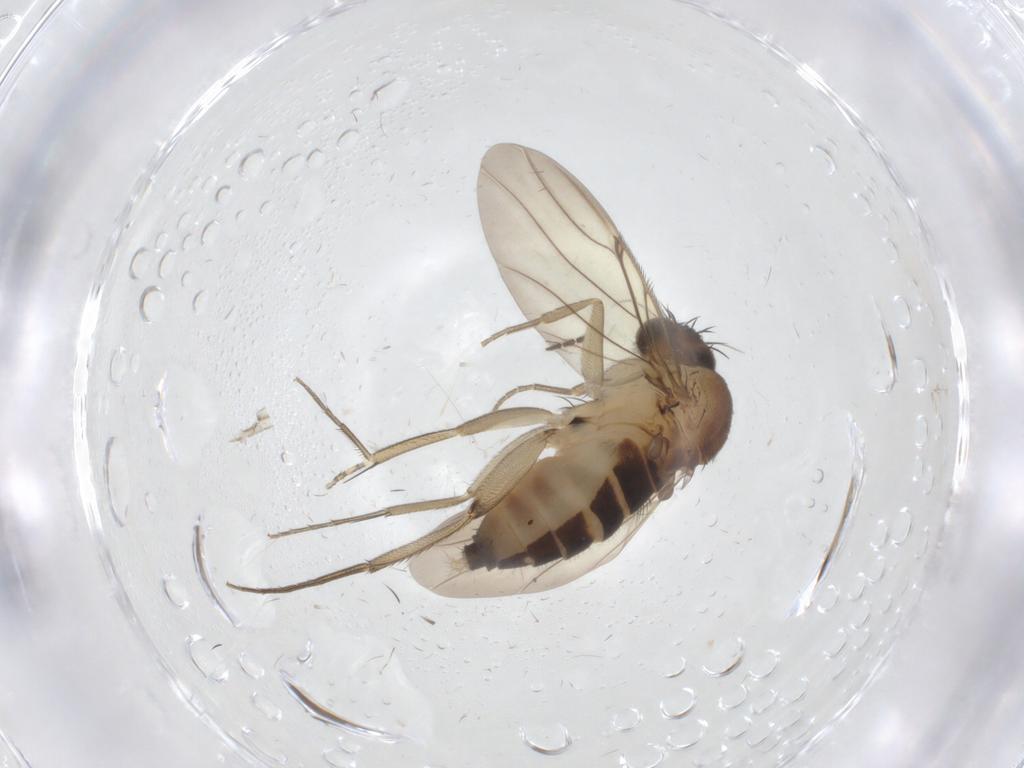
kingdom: Animalia
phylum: Arthropoda
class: Insecta
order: Diptera
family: Phoridae
